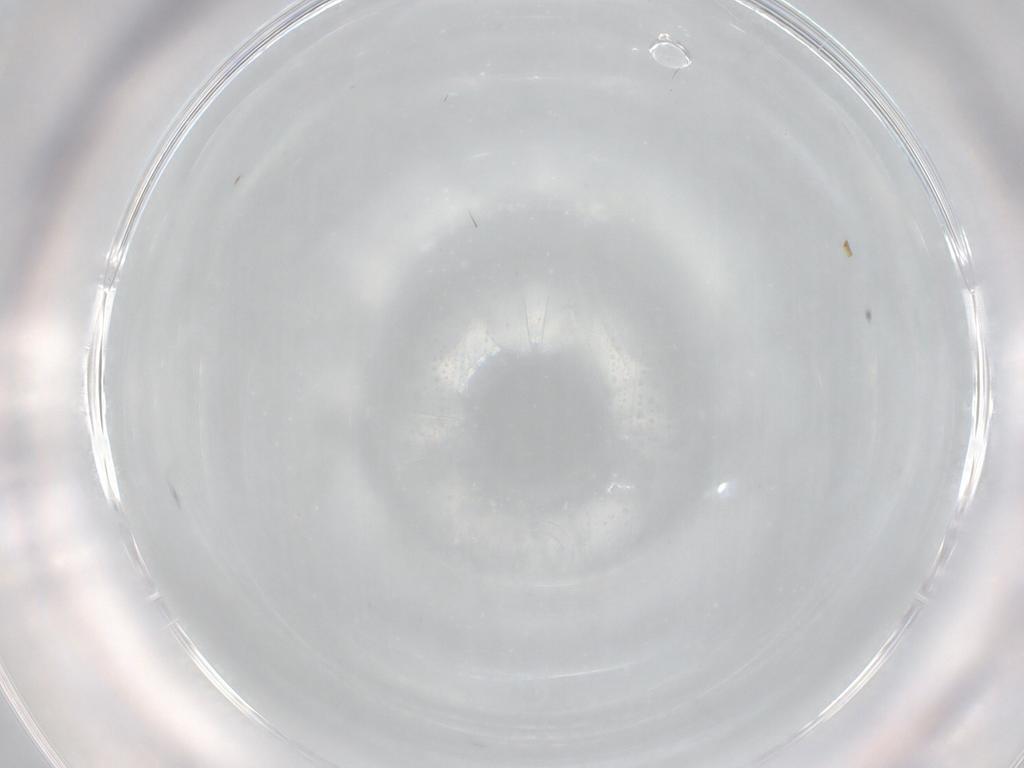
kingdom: Animalia
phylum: Arthropoda
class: Insecta
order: Diptera
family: Psychodidae
